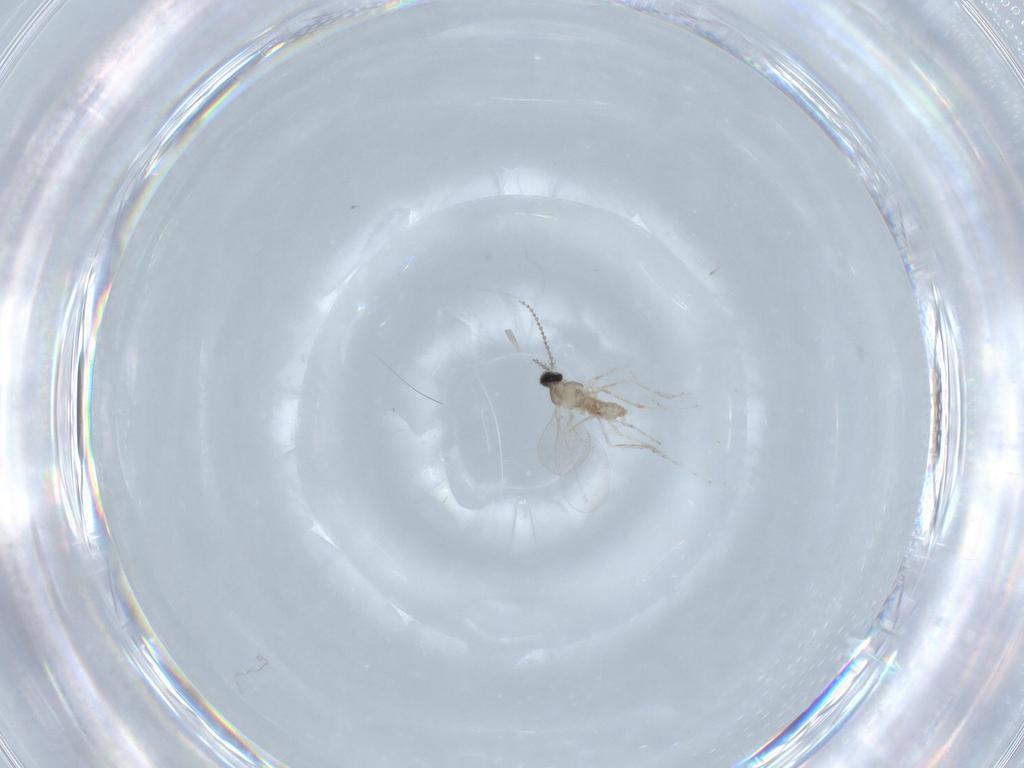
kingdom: Animalia
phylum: Arthropoda
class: Insecta
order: Diptera
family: Cecidomyiidae
